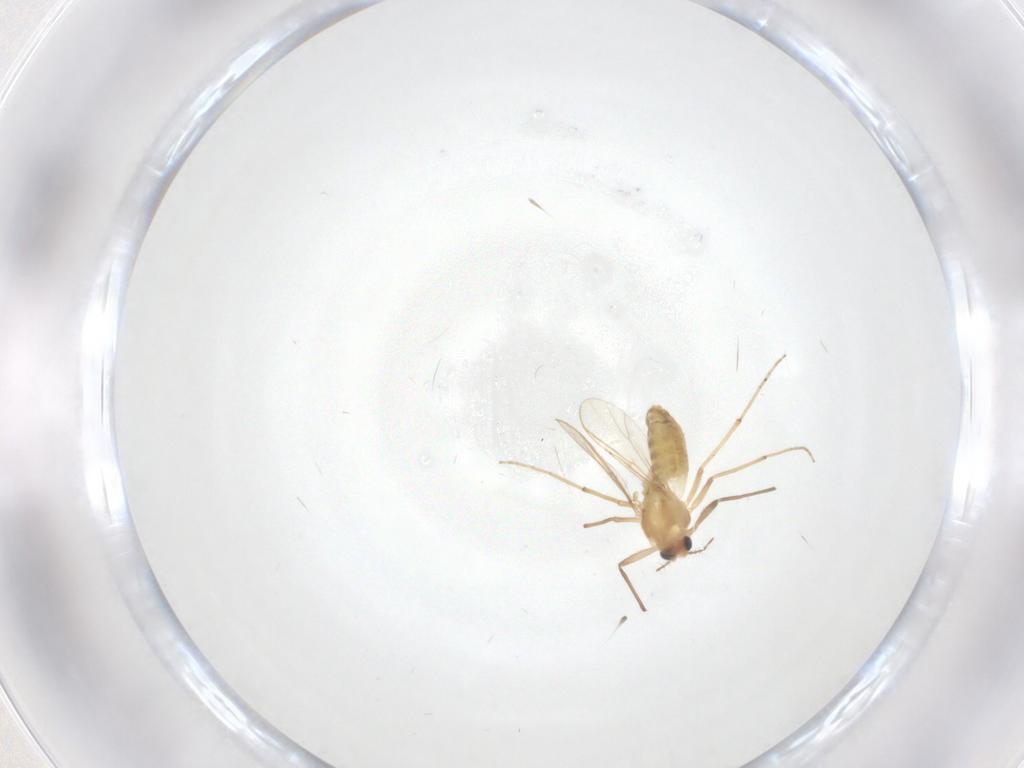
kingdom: Animalia
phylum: Arthropoda
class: Insecta
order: Diptera
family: Chironomidae
